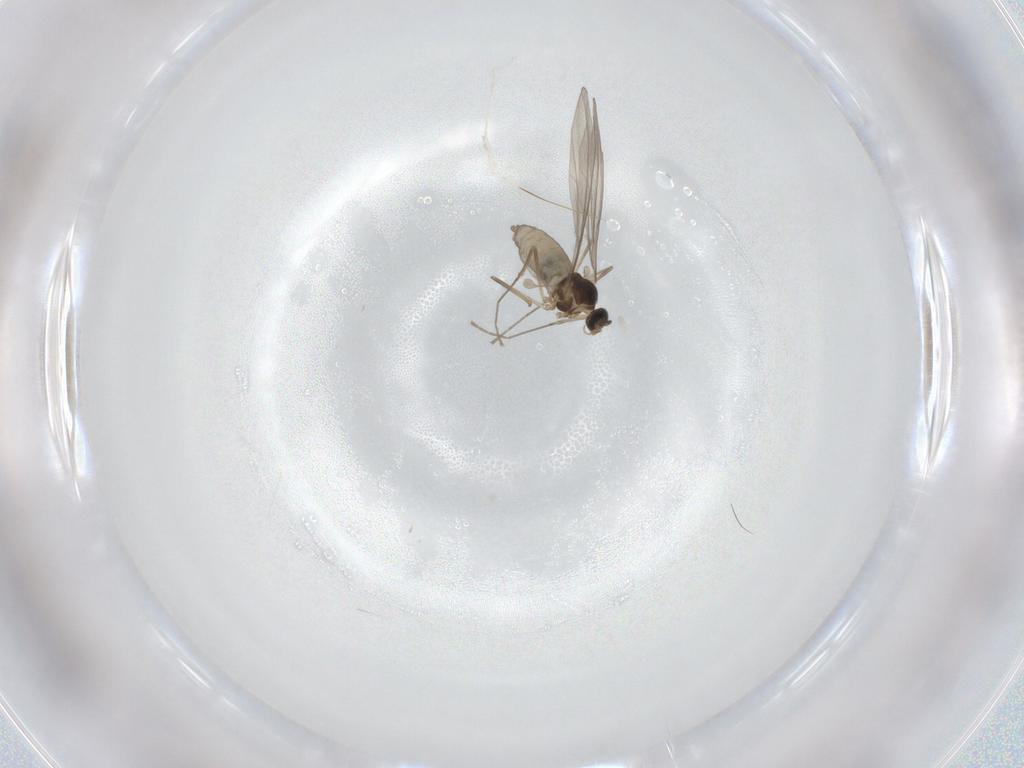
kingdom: Animalia
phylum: Arthropoda
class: Insecta
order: Diptera
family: Cecidomyiidae
